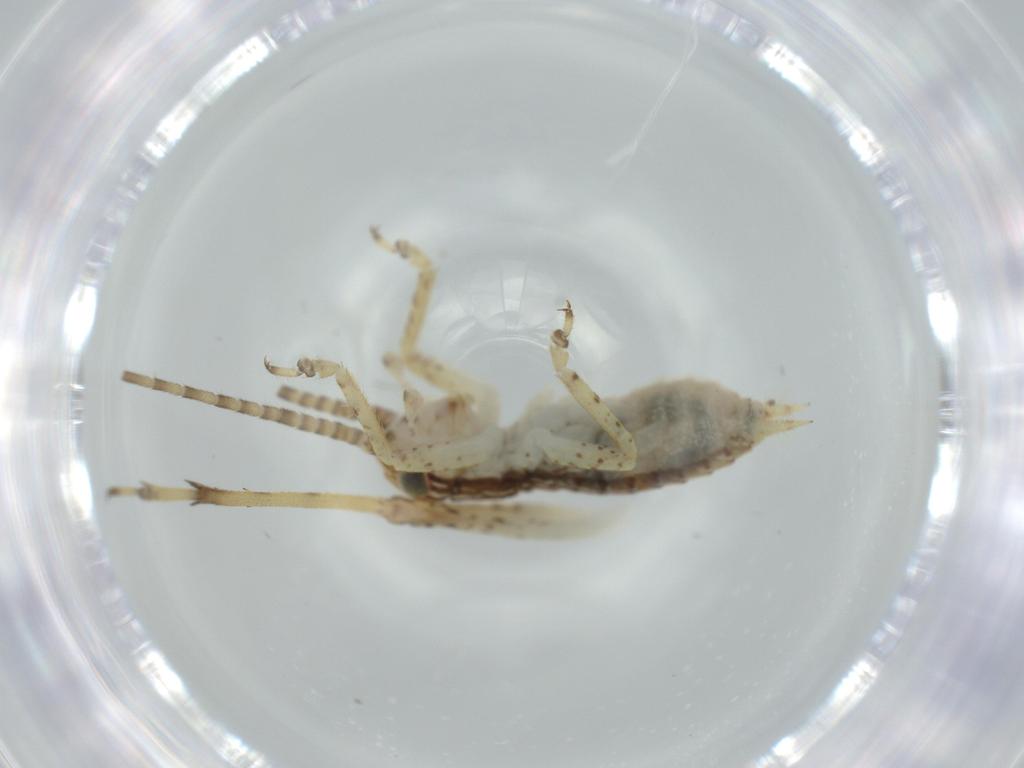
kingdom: Animalia
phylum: Arthropoda
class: Insecta
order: Orthoptera
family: Gryllidae
